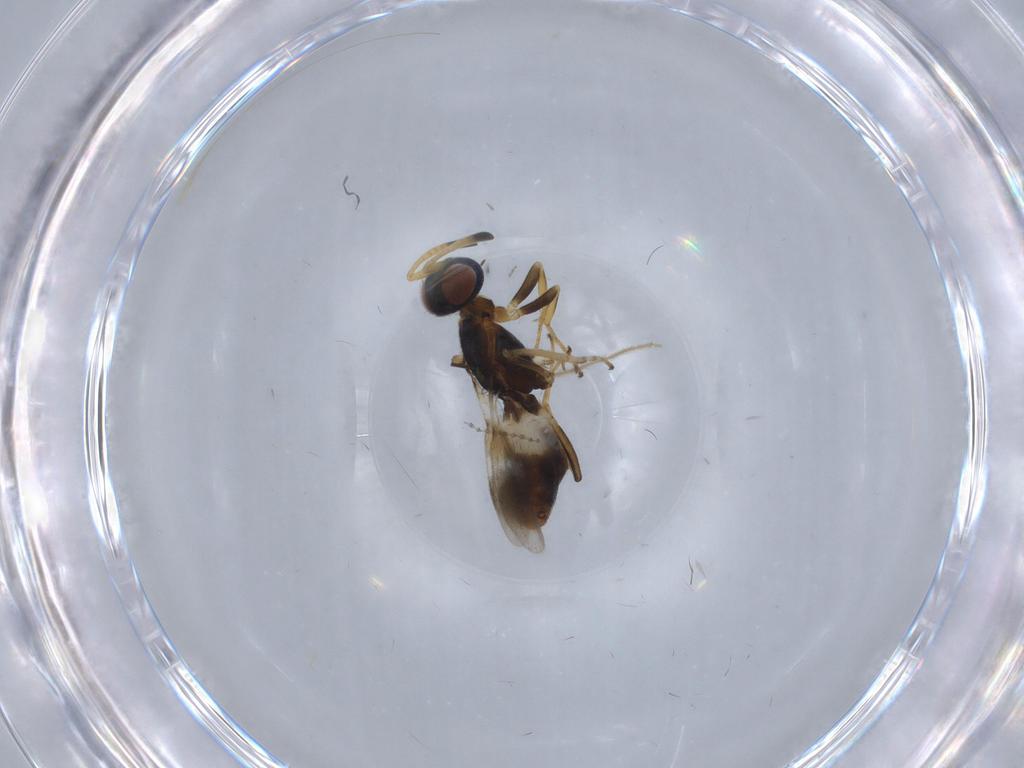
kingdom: Animalia
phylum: Arthropoda
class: Insecta
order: Hymenoptera
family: Eupelmidae
